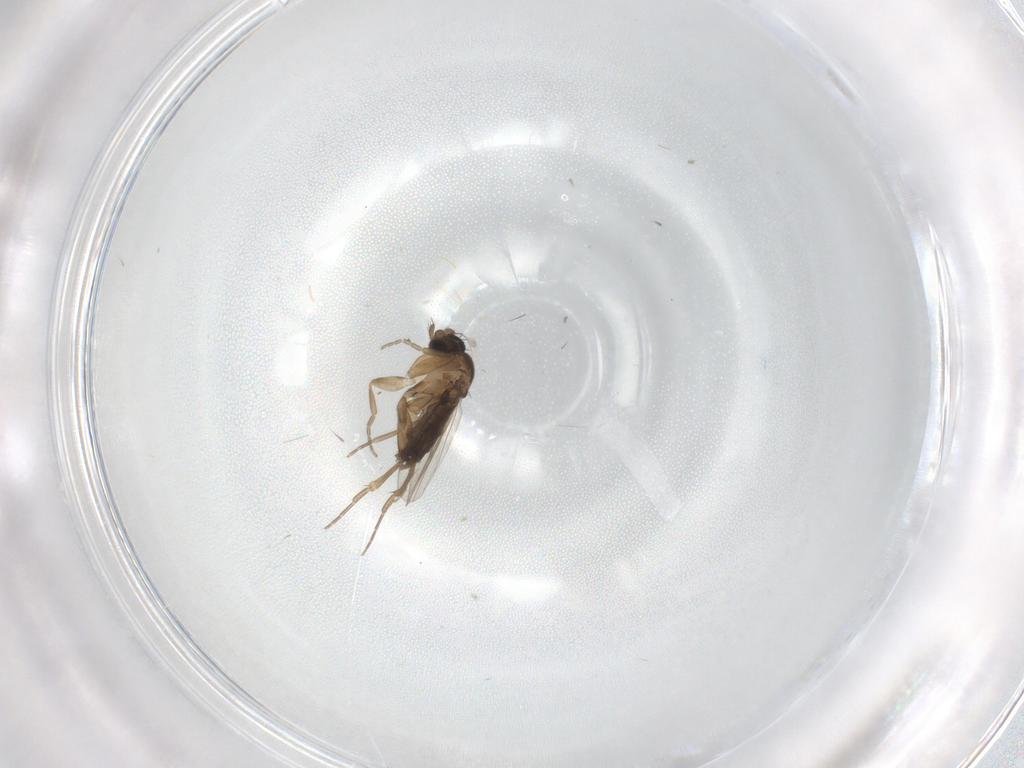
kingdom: Animalia
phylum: Arthropoda
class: Insecta
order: Diptera
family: Phoridae
